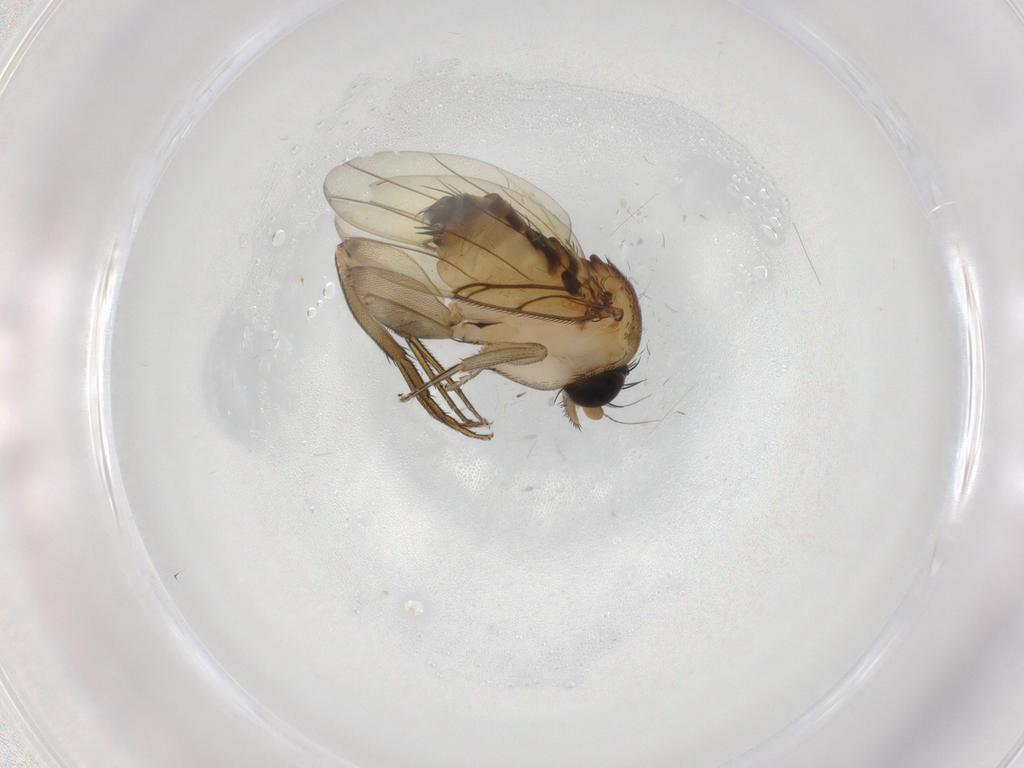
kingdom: Animalia
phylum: Arthropoda
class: Insecta
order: Diptera
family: Phoridae
